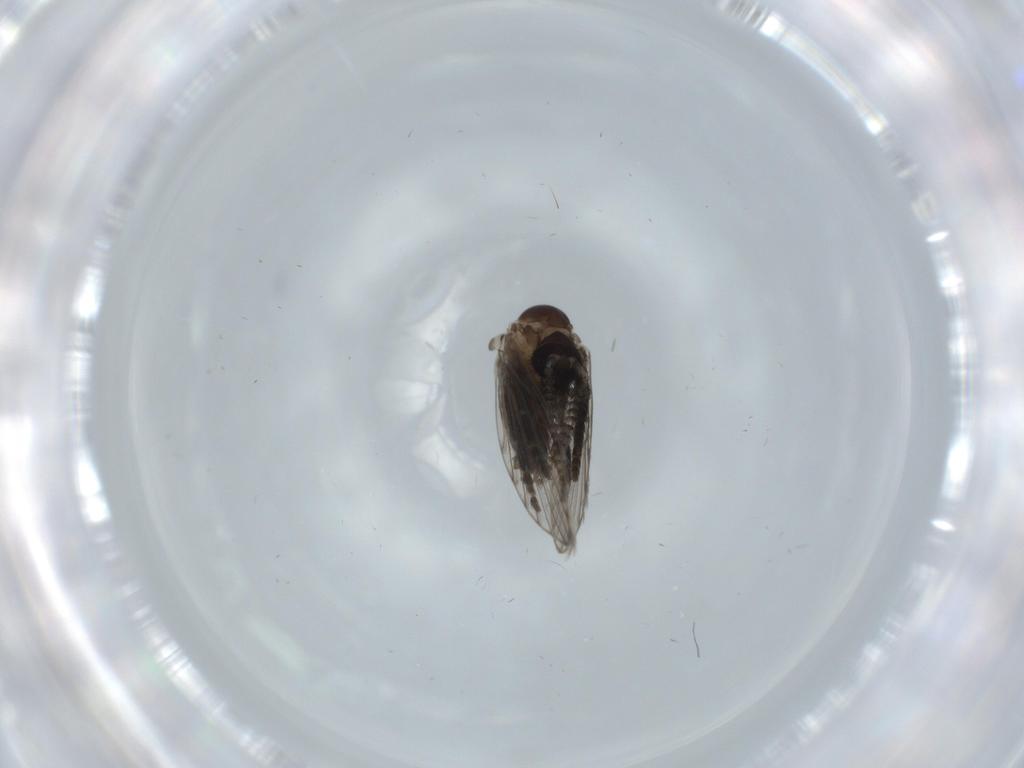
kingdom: Animalia
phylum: Arthropoda
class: Insecta
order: Diptera
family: Psychodidae
